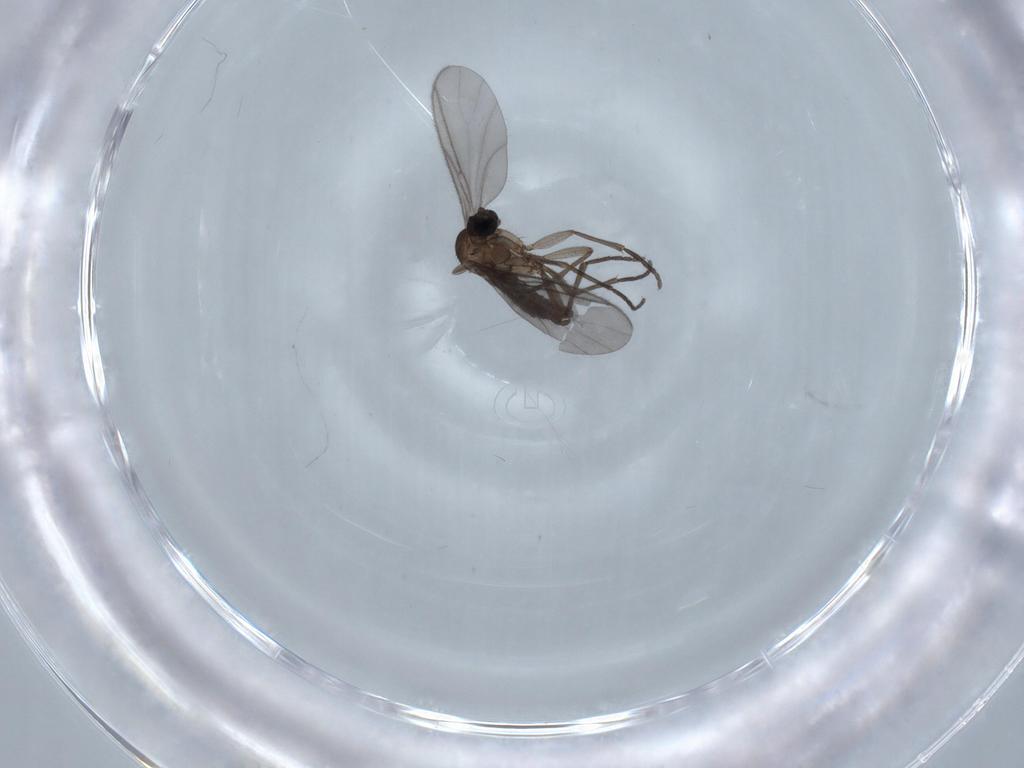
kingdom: Animalia
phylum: Arthropoda
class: Insecta
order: Diptera
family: Sciaridae
